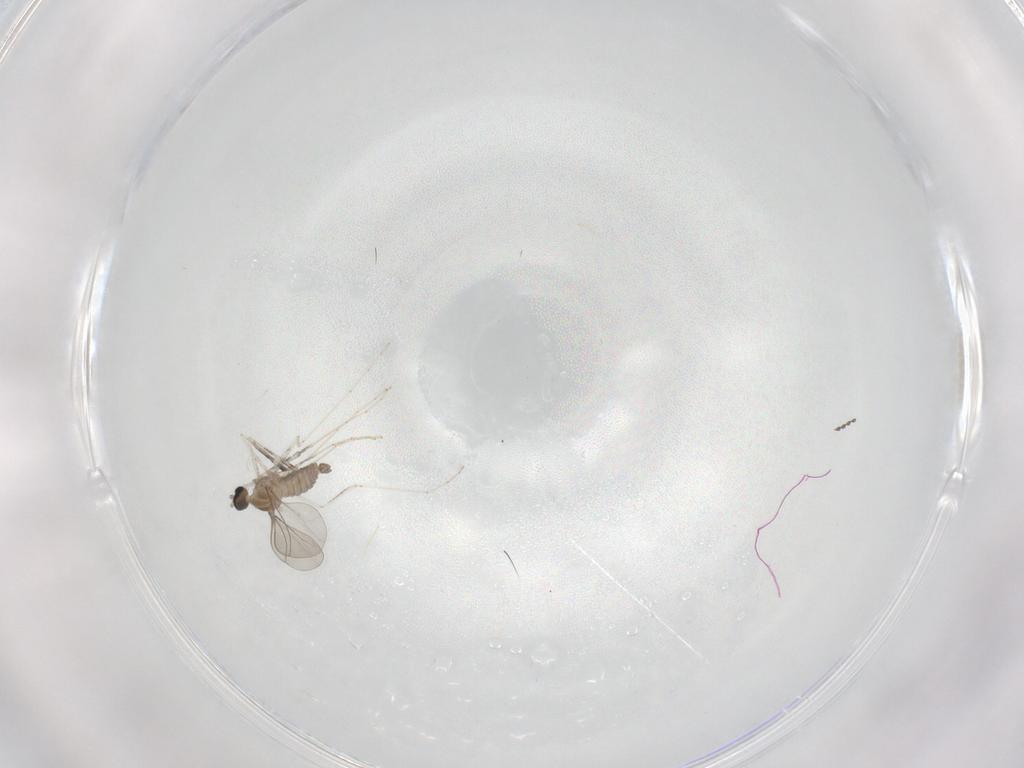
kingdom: Animalia
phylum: Arthropoda
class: Insecta
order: Diptera
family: Cecidomyiidae
